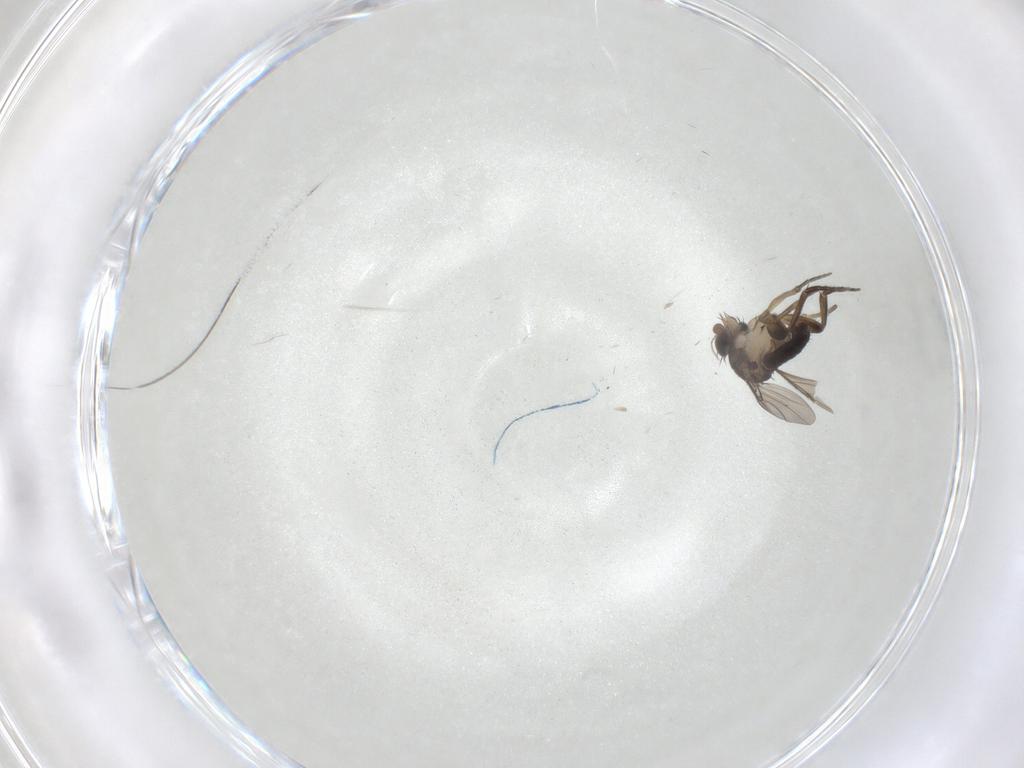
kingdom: Animalia
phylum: Arthropoda
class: Insecta
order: Diptera
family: Phoridae
